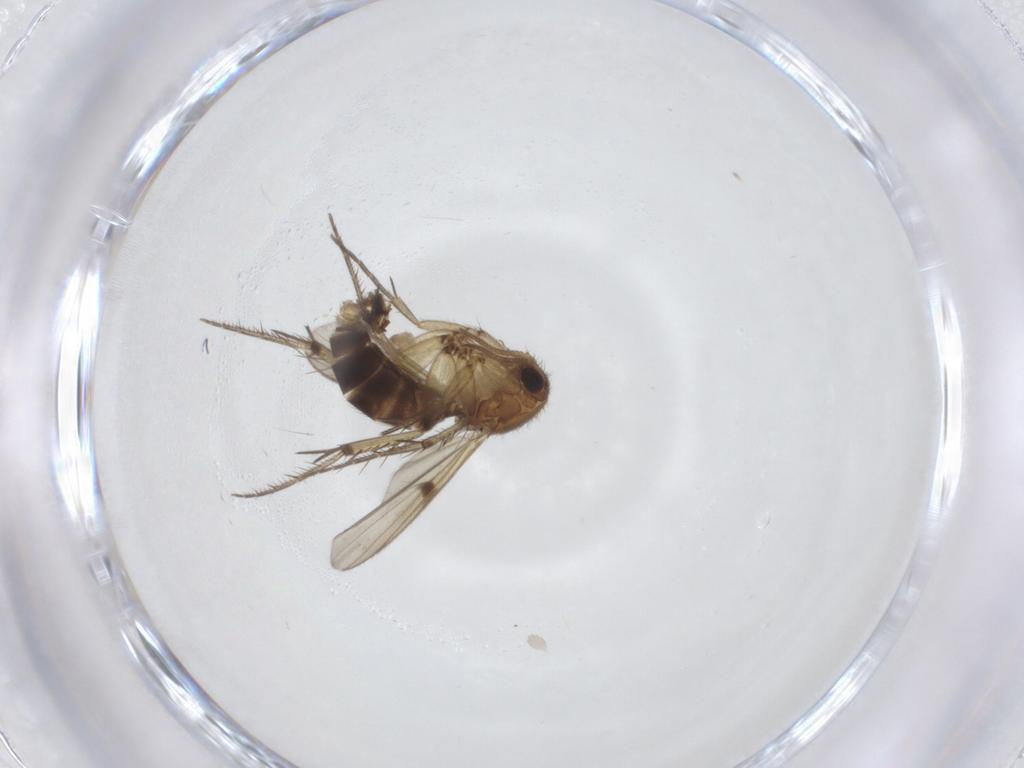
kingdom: Animalia
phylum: Arthropoda
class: Insecta
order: Diptera
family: Mycetophilidae
